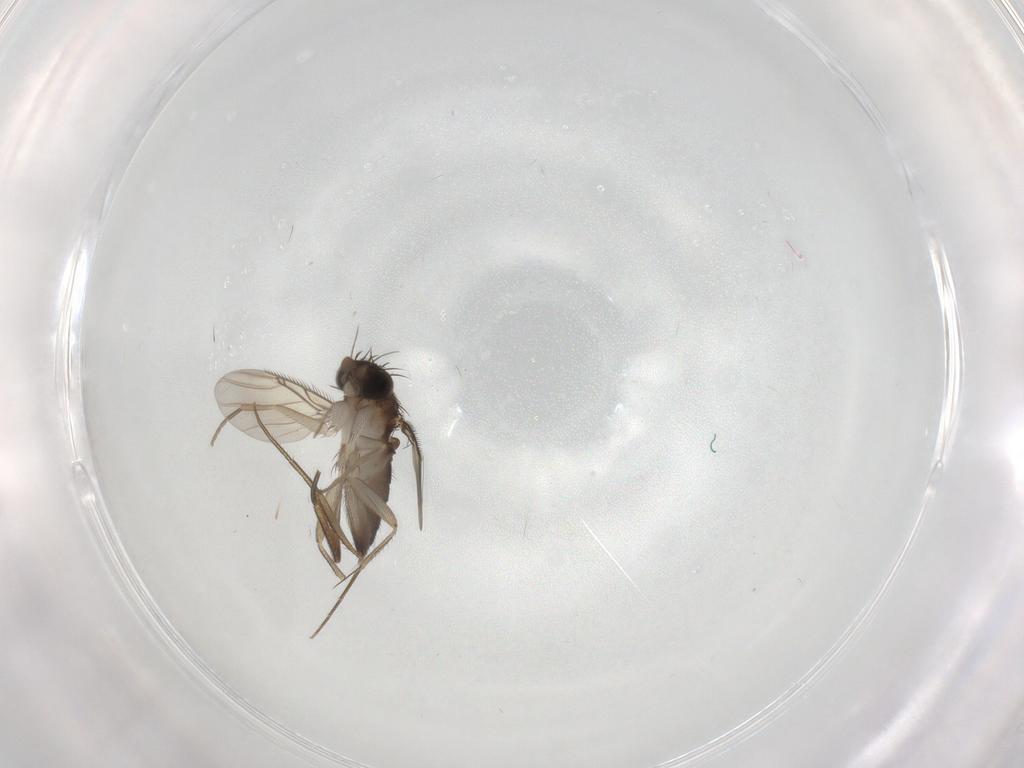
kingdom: Animalia
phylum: Arthropoda
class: Insecta
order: Diptera
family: Phoridae
